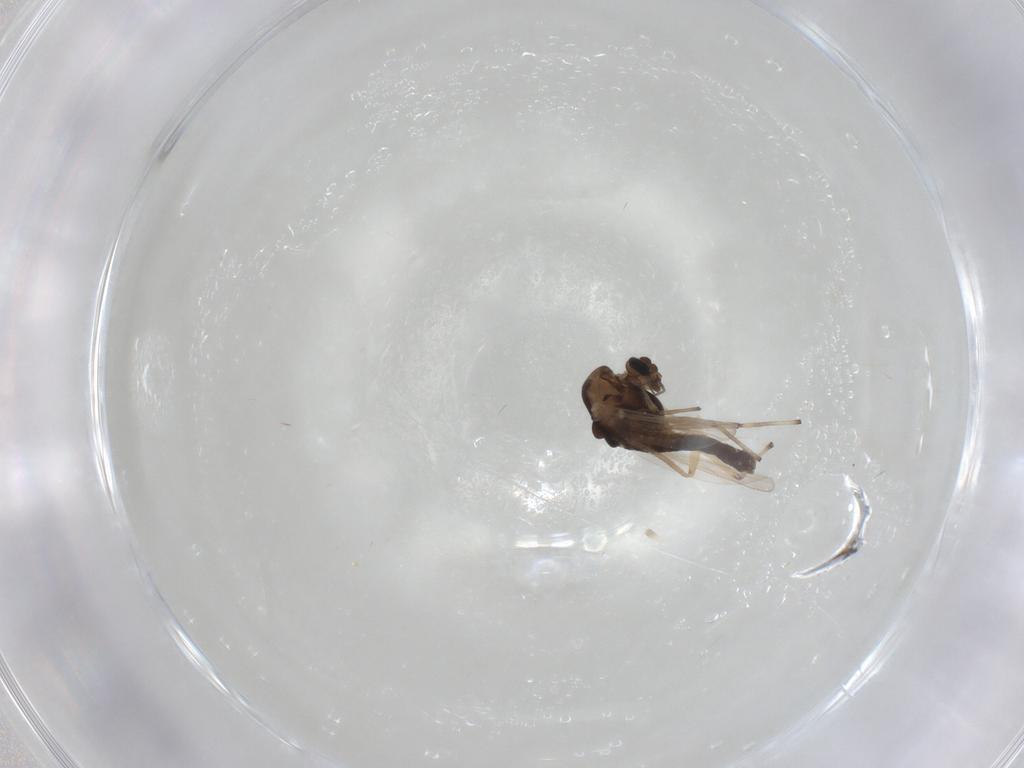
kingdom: Animalia
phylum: Arthropoda
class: Insecta
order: Diptera
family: Chironomidae
